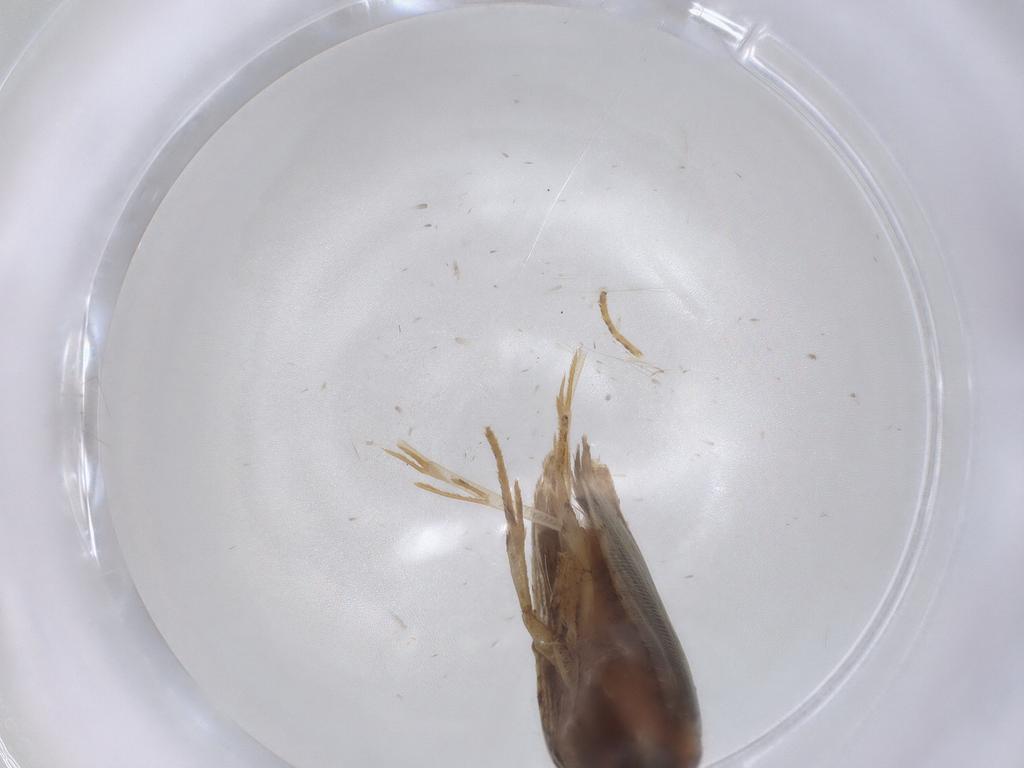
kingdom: Animalia
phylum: Arthropoda
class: Insecta
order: Lepidoptera
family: Gelechiidae
